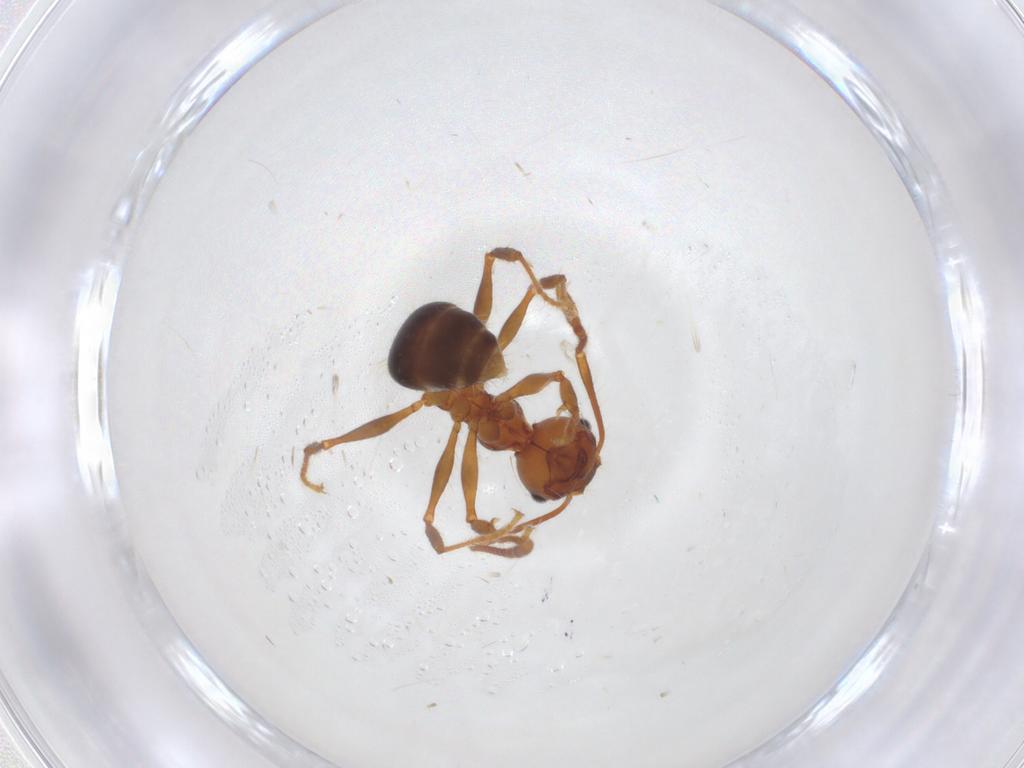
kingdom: Animalia
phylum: Arthropoda
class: Insecta
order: Hymenoptera
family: Formicidae
